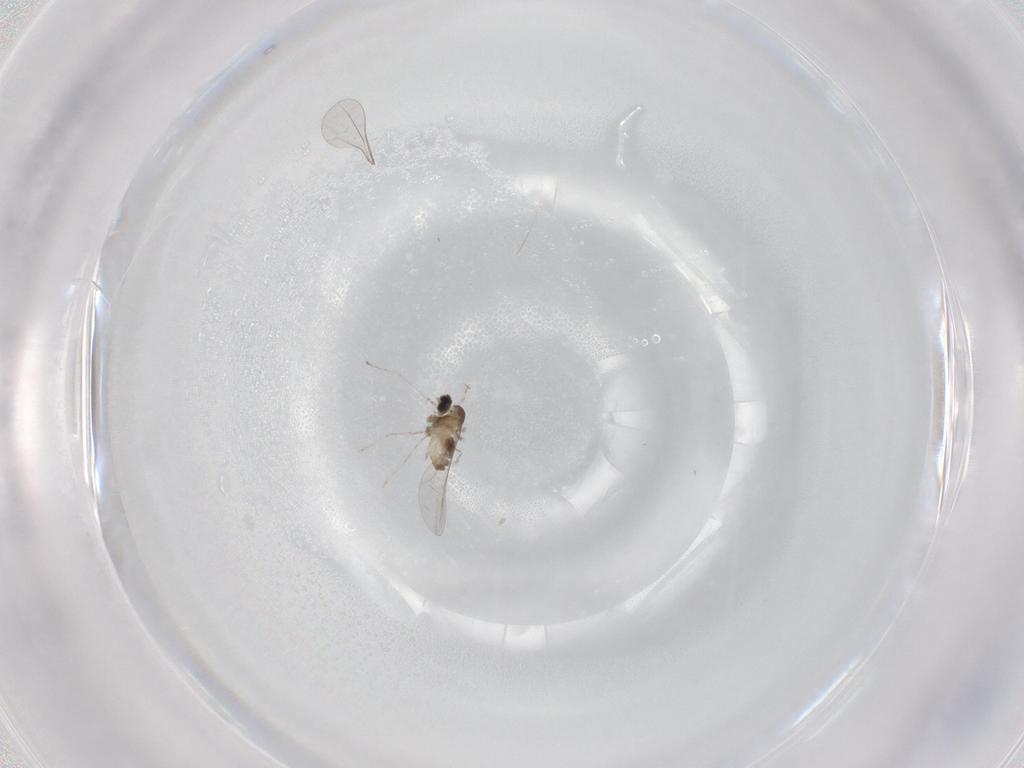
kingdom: Animalia
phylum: Arthropoda
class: Insecta
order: Diptera
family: Cecidomyiidae
